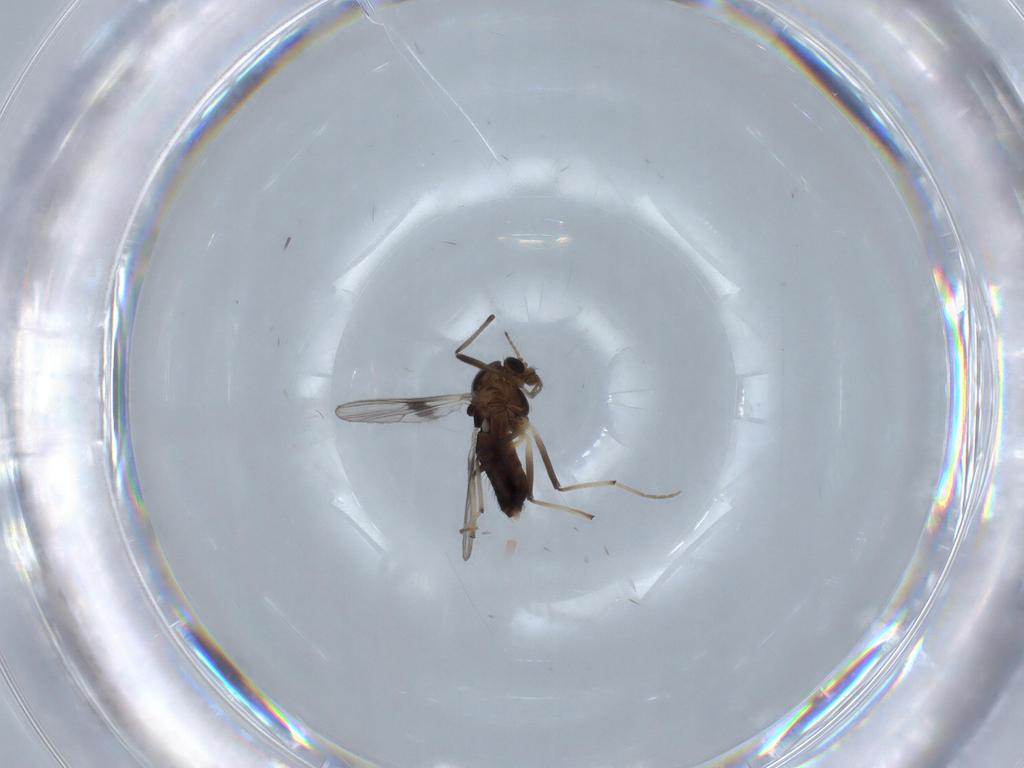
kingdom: Animalia
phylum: Arthropoda
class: Insecta
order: Diptera
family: Chironomidae
